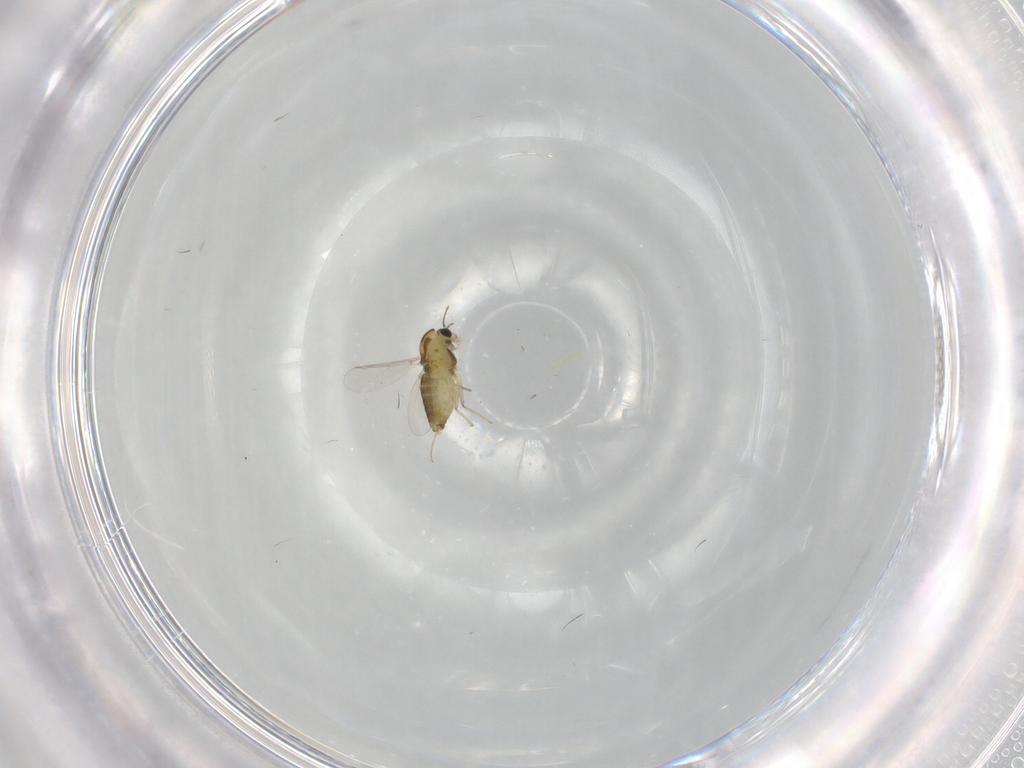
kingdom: Animalia
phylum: Arthropoda
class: Insecta
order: Diptera
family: Chironomidae
